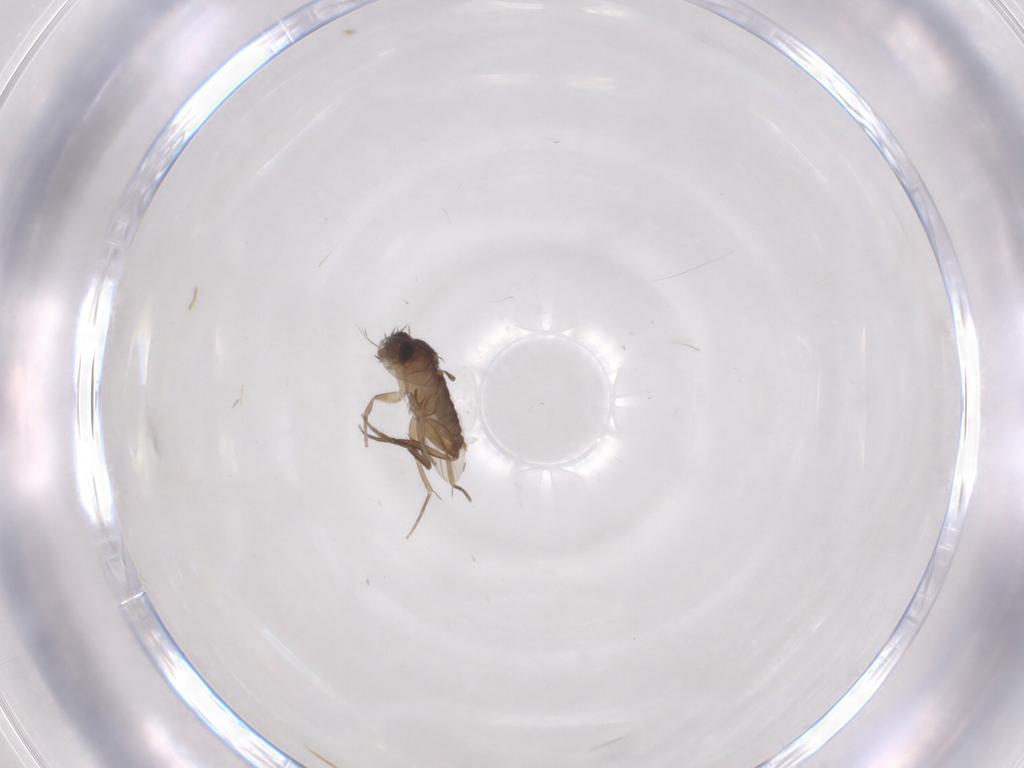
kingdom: Animalia
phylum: Arthropoda
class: Insecta
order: Diptera
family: Phoridae
